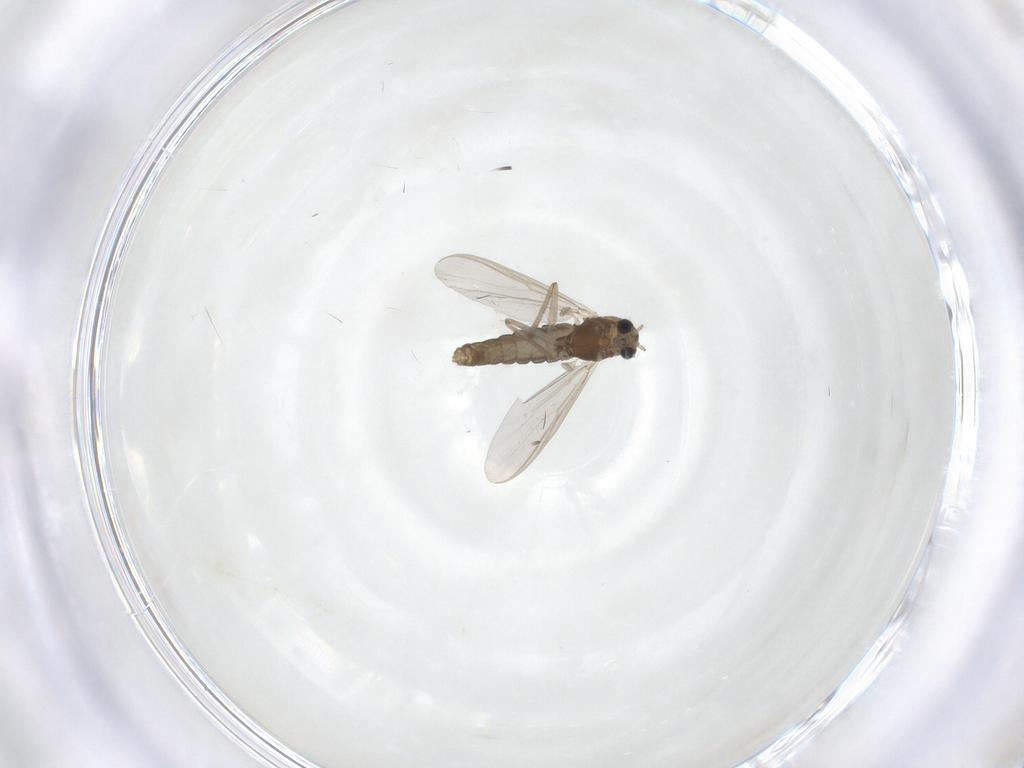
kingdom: Animalia
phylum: Arthropoda
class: Insecta
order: Diptera
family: Chironomidae
